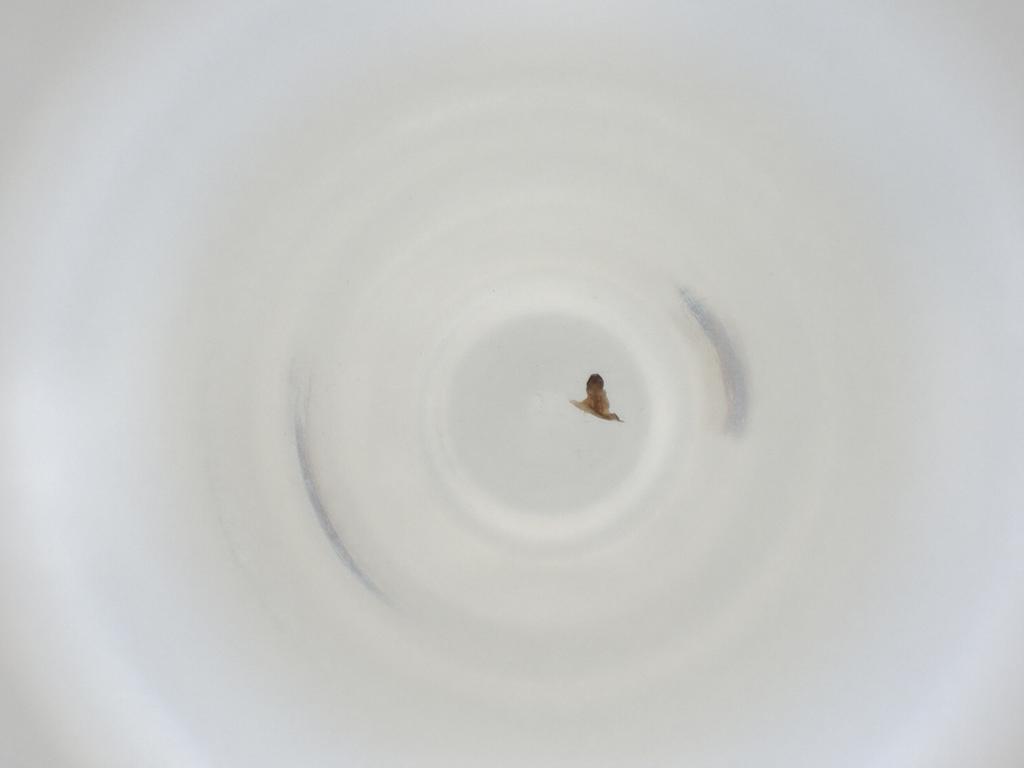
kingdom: Animalia
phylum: Arthropoda
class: Insecta
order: Diptera
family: Cecidomyiidae
